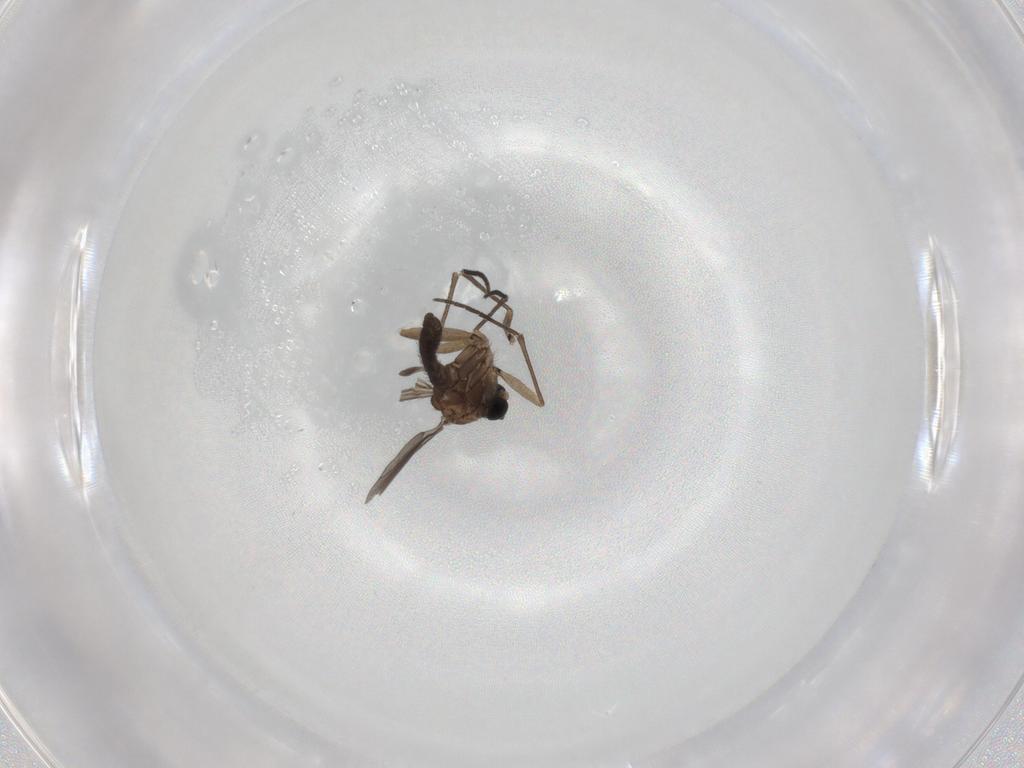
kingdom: Animalia
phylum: Arthropoda
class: Insecta
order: Diptera
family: Sciaridae
